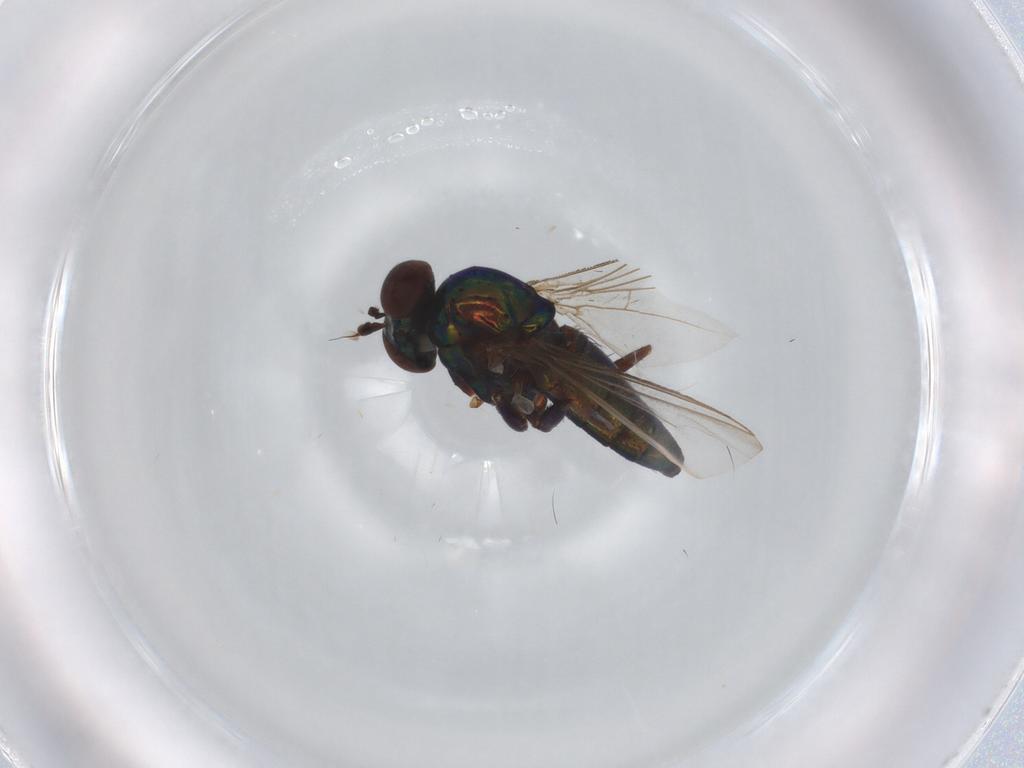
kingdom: Animalia
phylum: Arthropoda
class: Insecta
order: Diptera
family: Dolichopodidae
